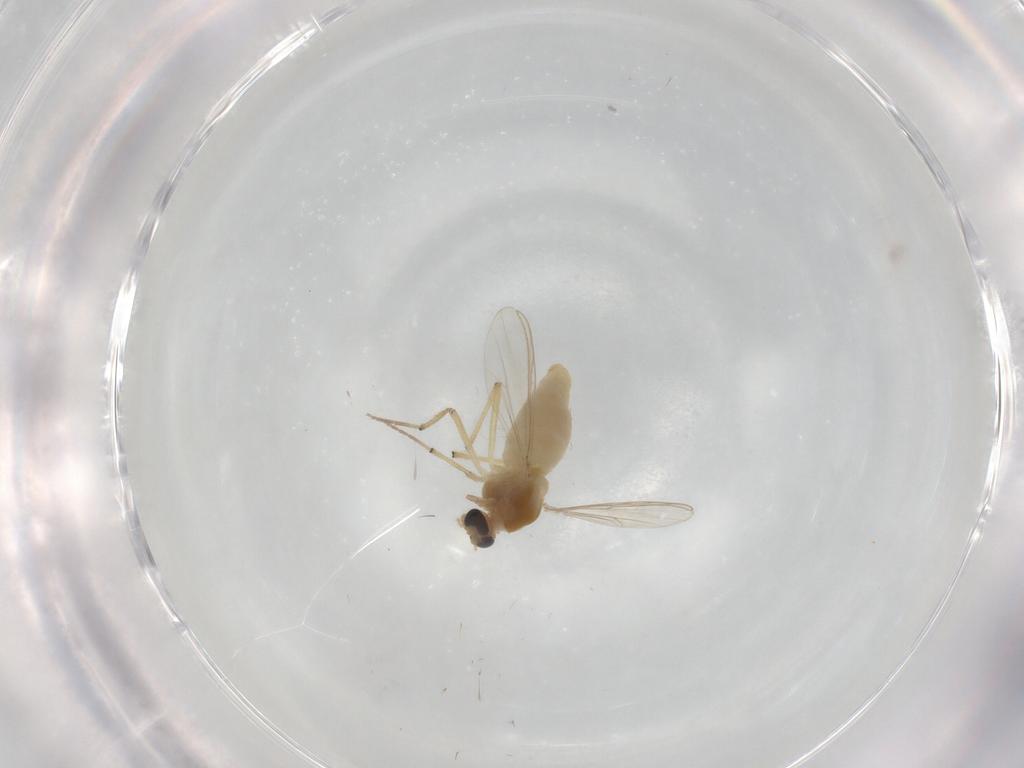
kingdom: Animalia
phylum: Arthropoda
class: Insecta
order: Diptera
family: Chironomidae
